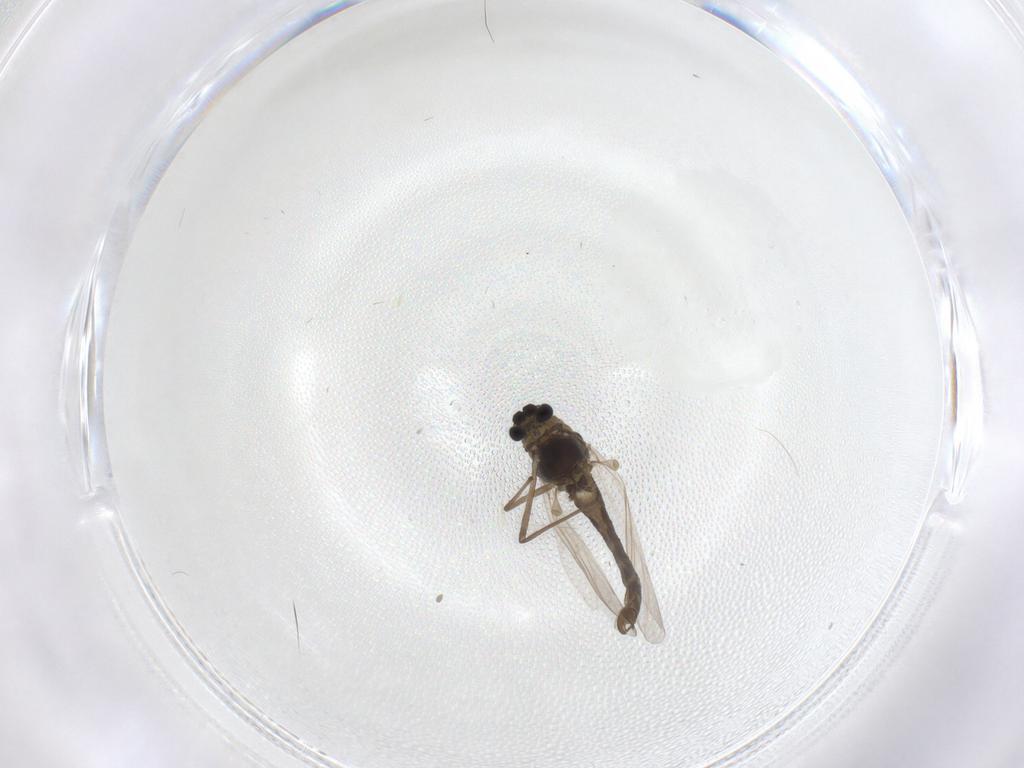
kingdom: Animalia
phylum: Arthropoda
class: Insecta
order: Diptera
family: Chironomidae
